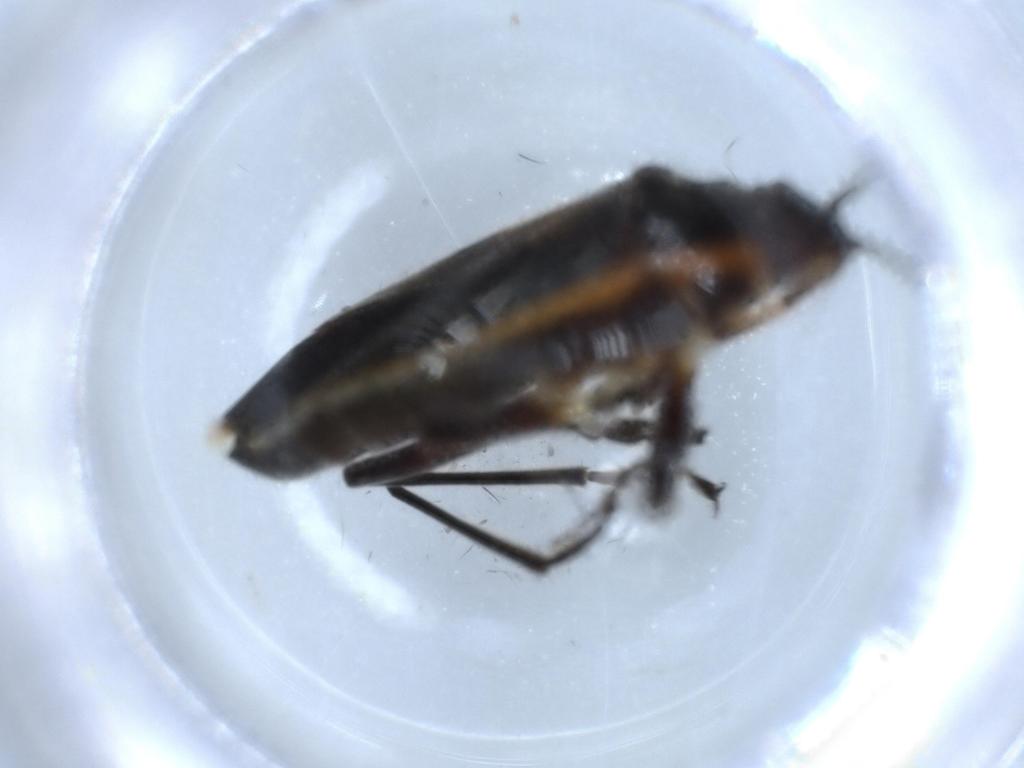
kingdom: Animalia
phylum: Arthropoda
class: Insecta
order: Hemiptera
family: Lygaeidae
